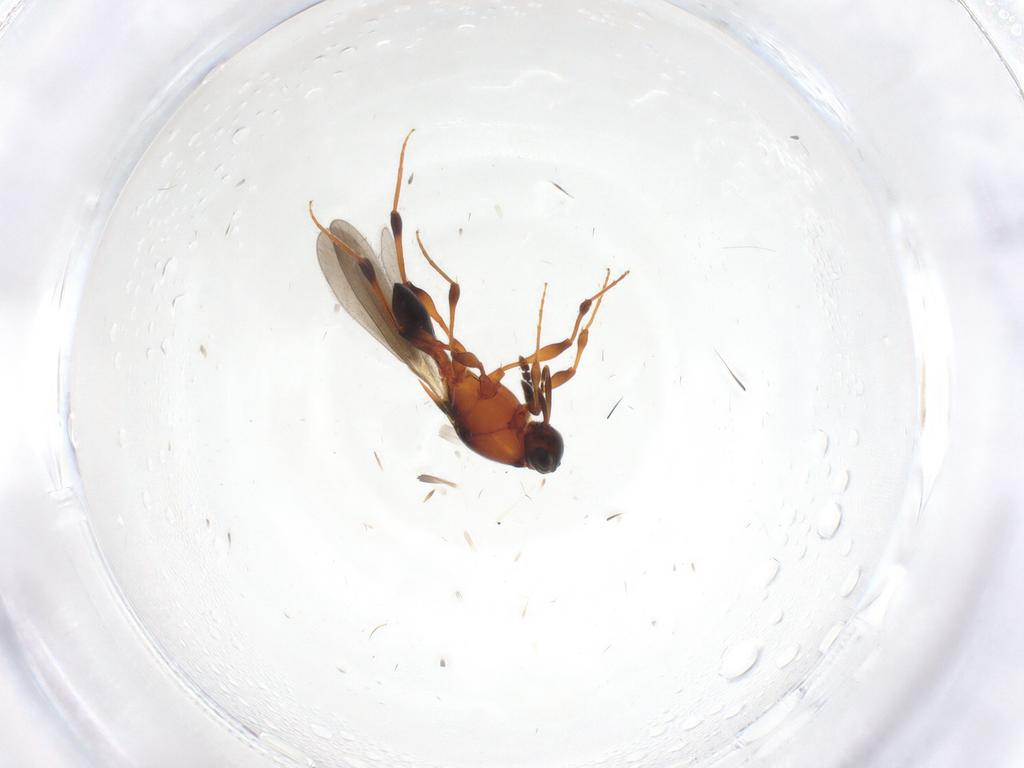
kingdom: Animalia
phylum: Arthropoda
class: Insecta
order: Hymenoptera
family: Platygastridae
